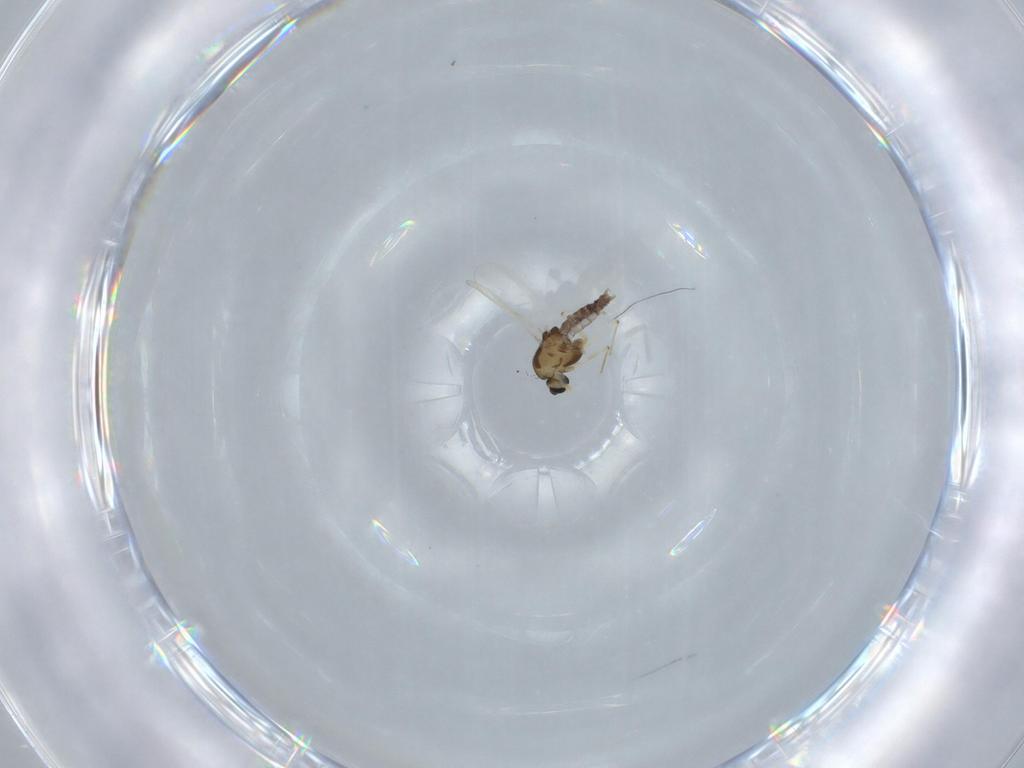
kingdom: Animalia
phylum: Arthropoda
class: Insecta
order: Diptera
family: Chironomidae
